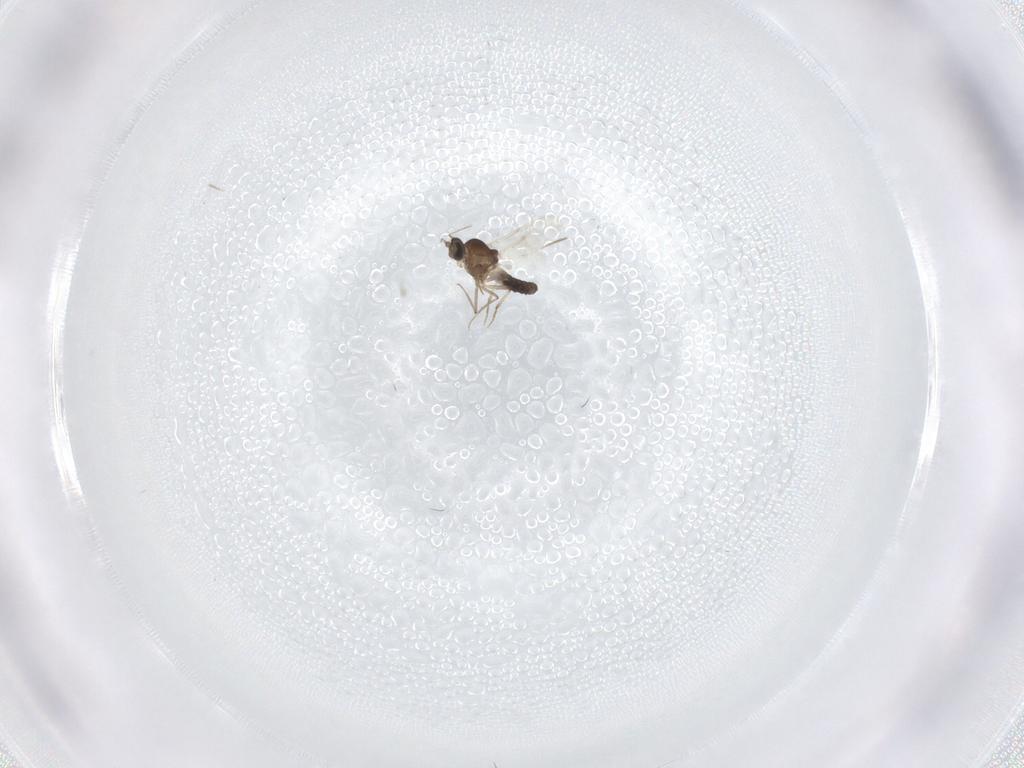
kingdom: Animalia
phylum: Arthropoda
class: Insecta
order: Diptera
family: Ceratopogonidae
